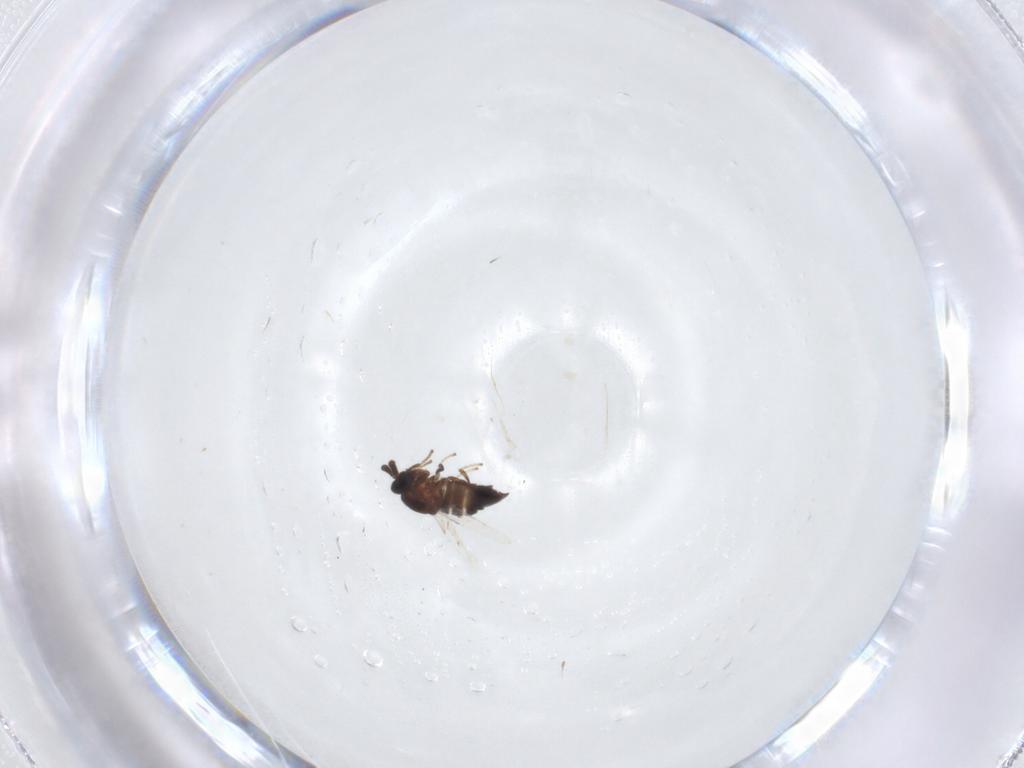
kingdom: Animalia
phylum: Arthropoda
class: Insecta
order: Diptera
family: Scatopsidae
